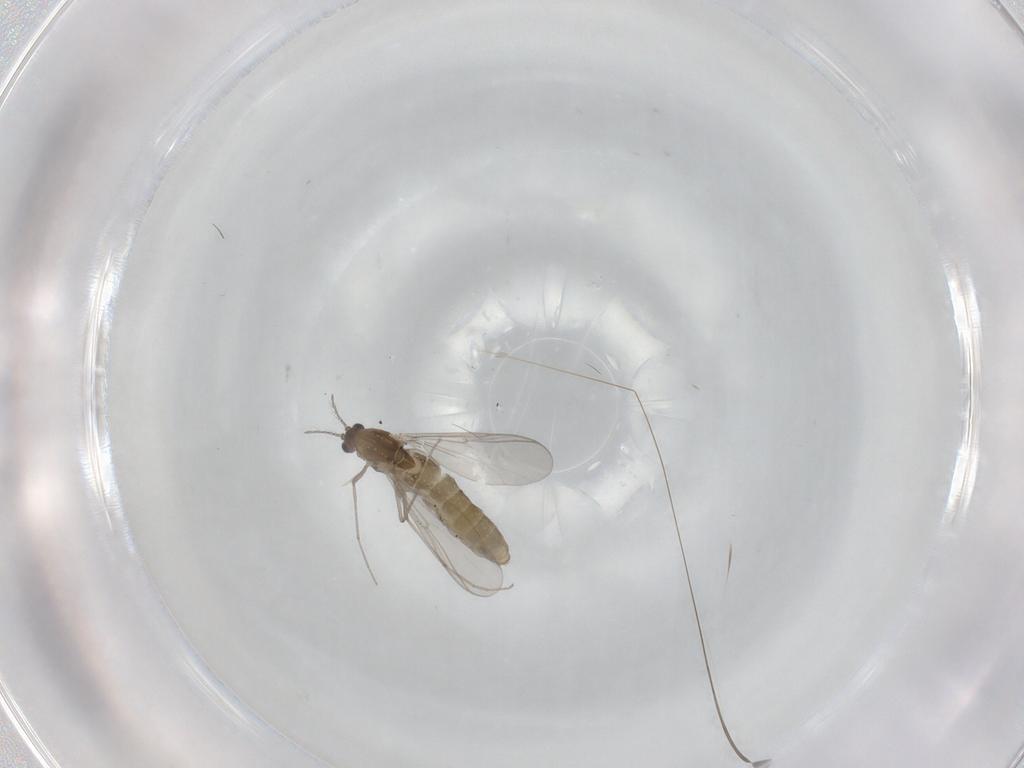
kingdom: Animalia
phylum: Arthropoda
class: Insecta
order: Diptera
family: Chironomidae
